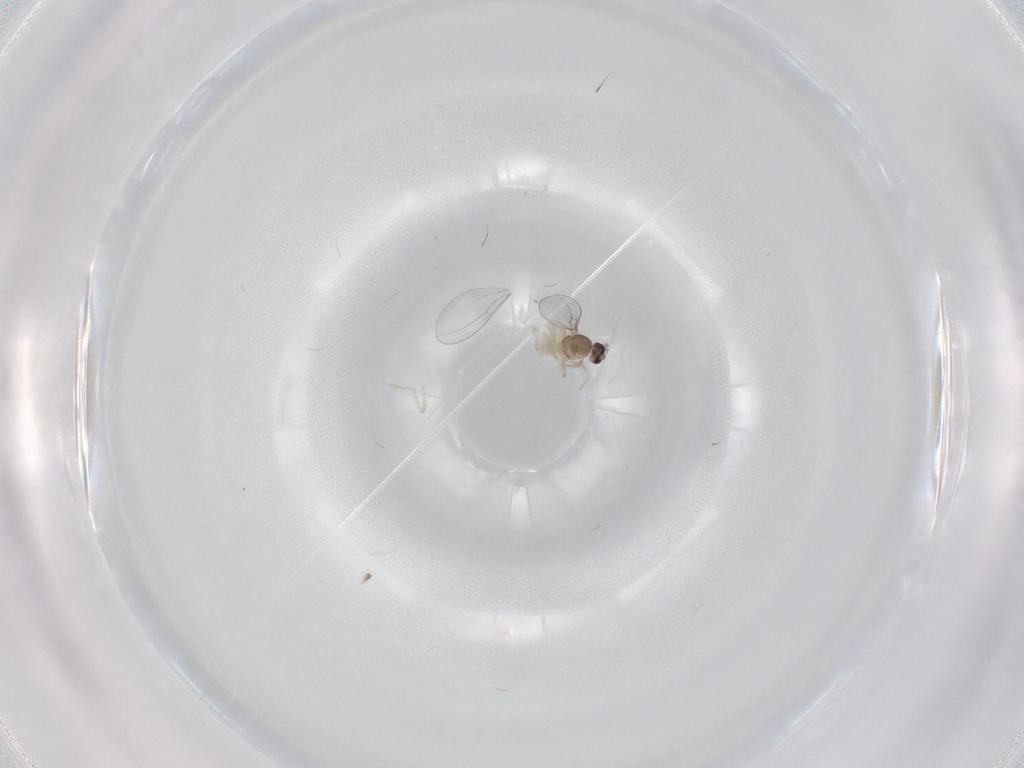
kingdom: Animalia
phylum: Arthropoda
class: Insecta
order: Diptera
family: Cecidomyiidae
